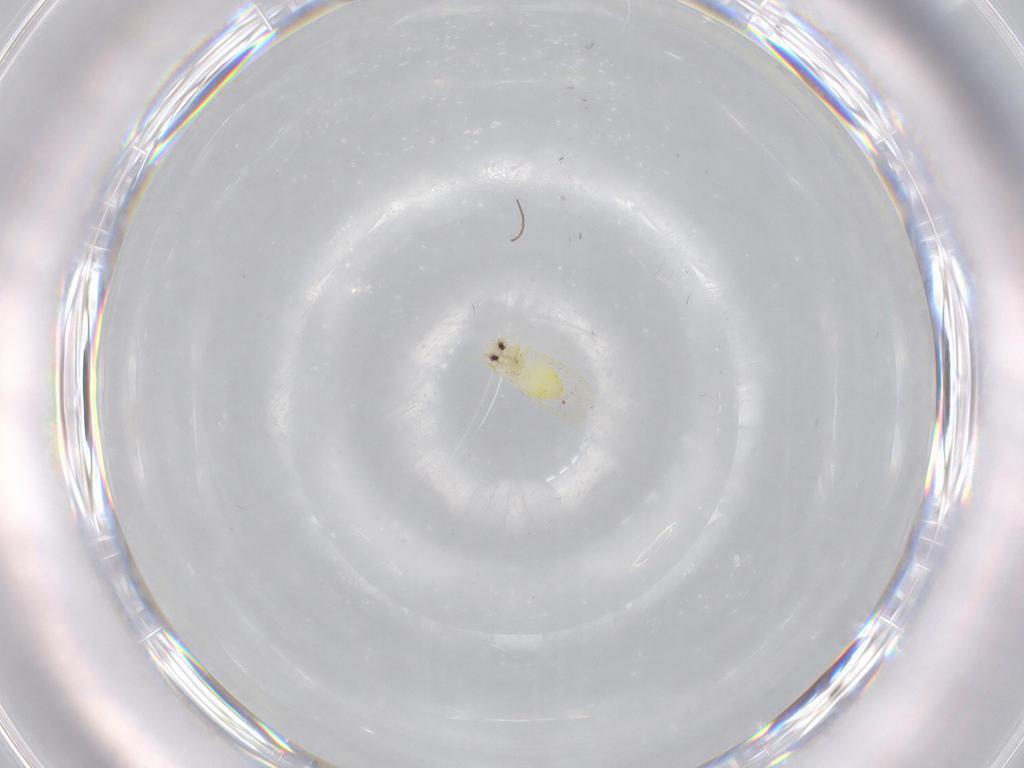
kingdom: Animalia
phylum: Arthropoda
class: Insecta
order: Hemiptera
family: Aleyrodidae
